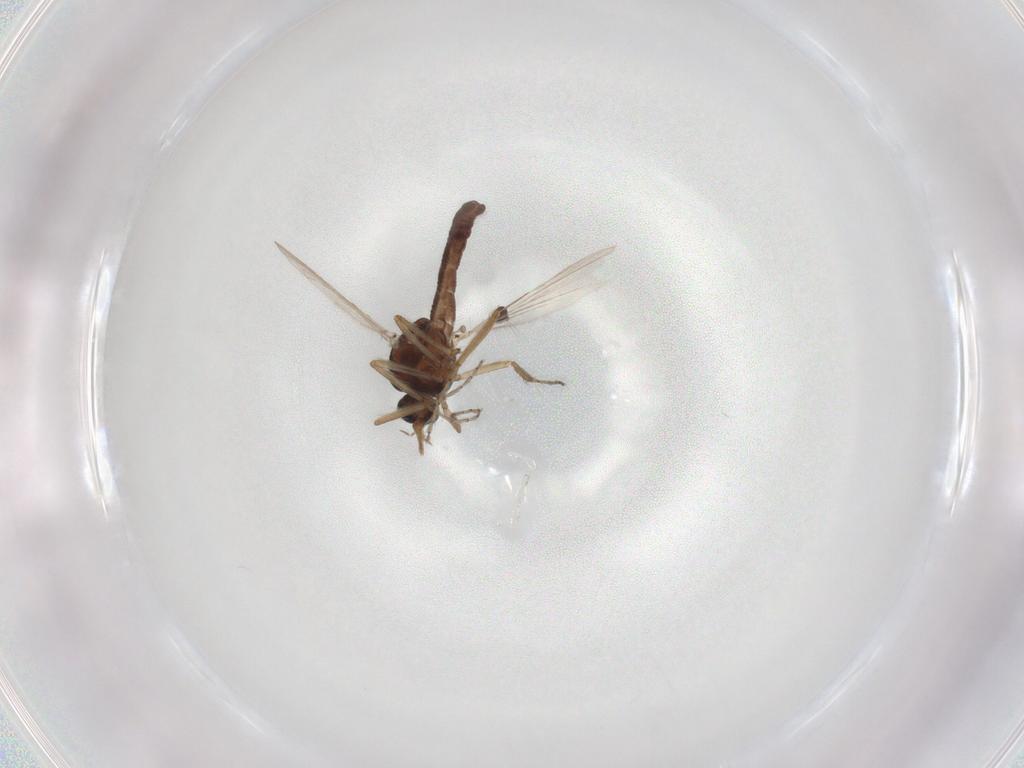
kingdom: Animalia
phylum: Arthropoda
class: Insecta
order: Diptera
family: Ceratopogonidae
